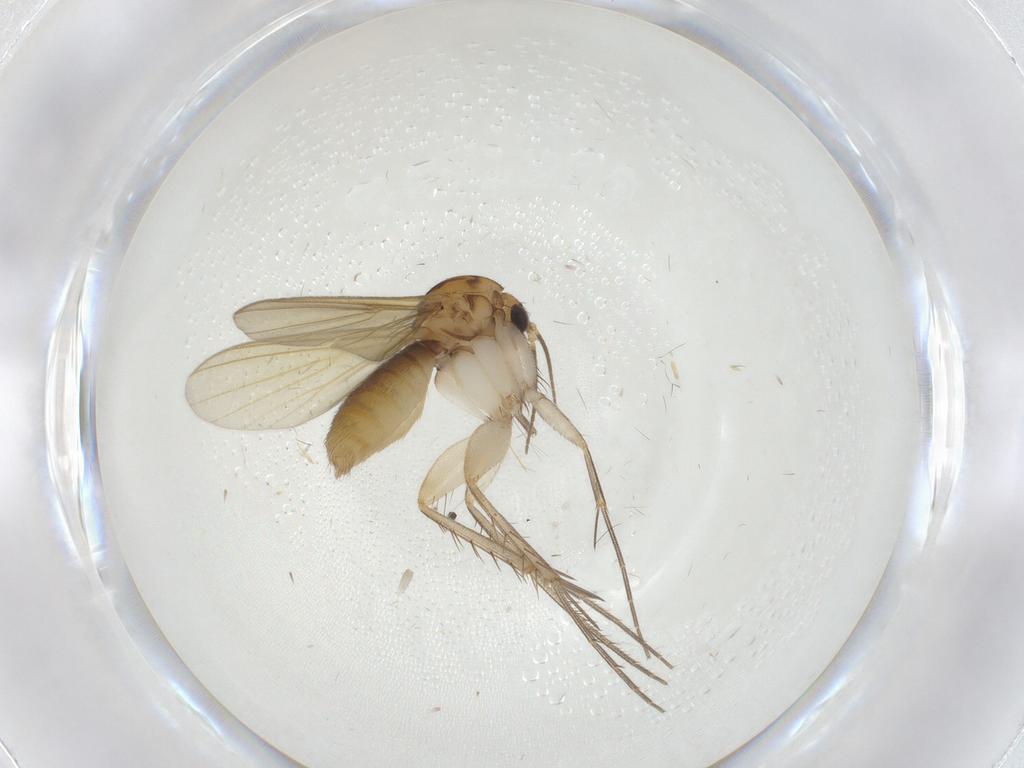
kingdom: Animalia
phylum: Arthropoda
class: Insecta
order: Diptera
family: Mycetophilidae
